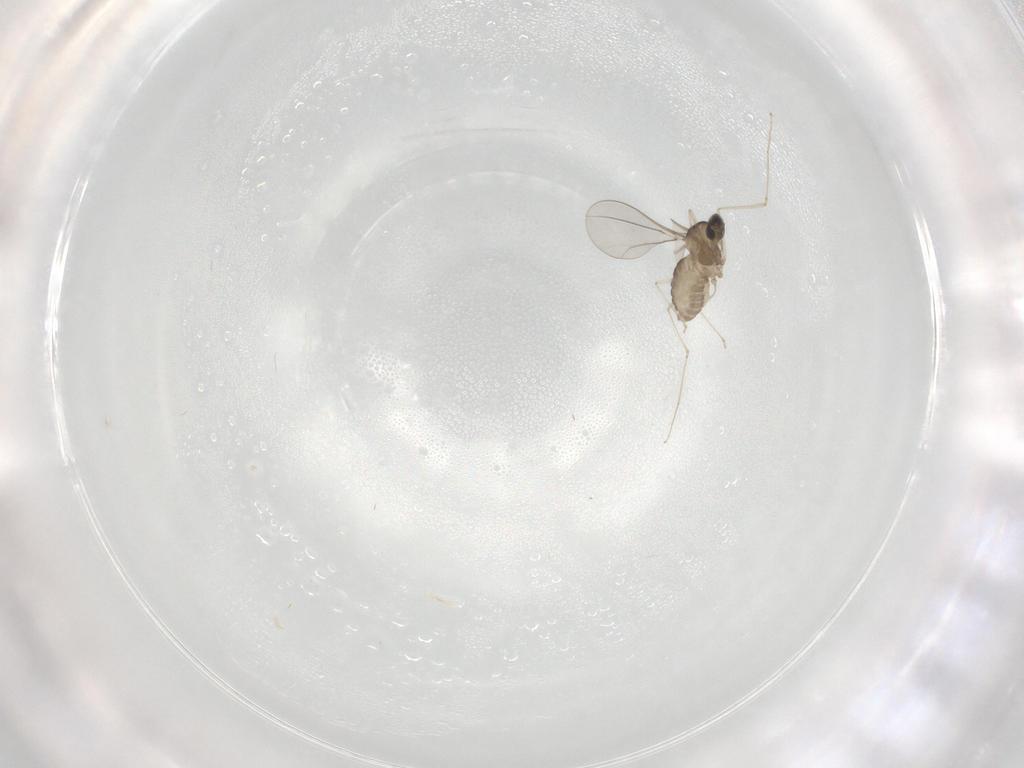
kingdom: Animalia
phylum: Arthropoda
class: Insecta
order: Diptera
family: Cecidomyiidae
